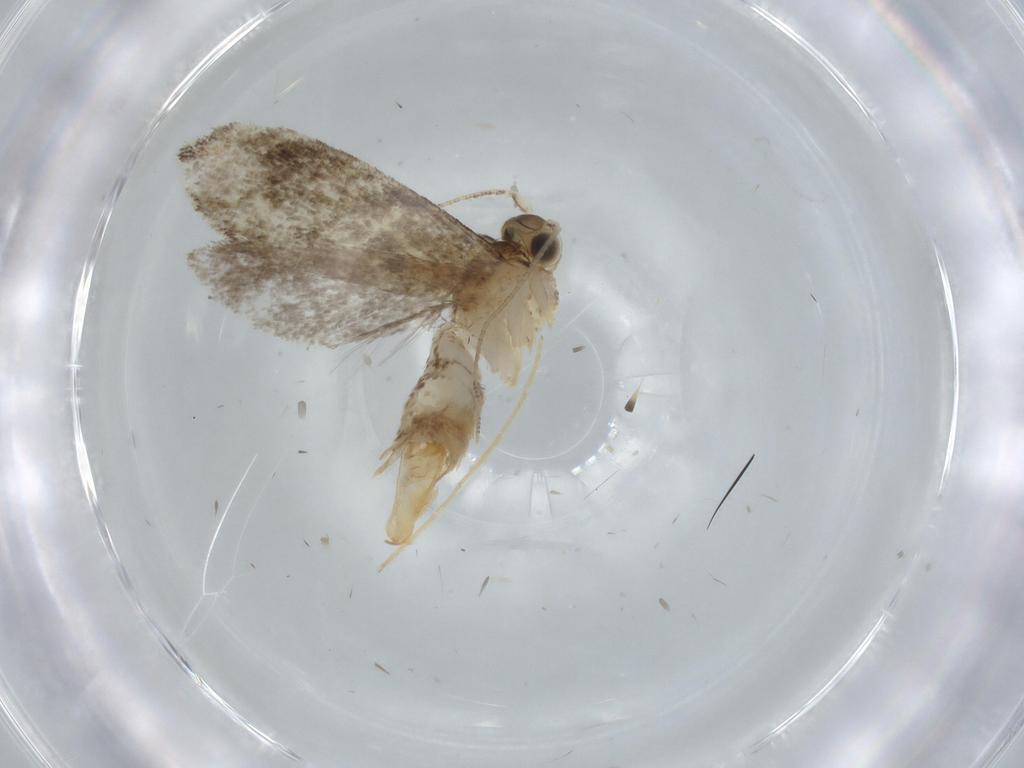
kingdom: Animalia
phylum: Arthropoda
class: Insecta
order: Lepidoptera
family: Tineidae
